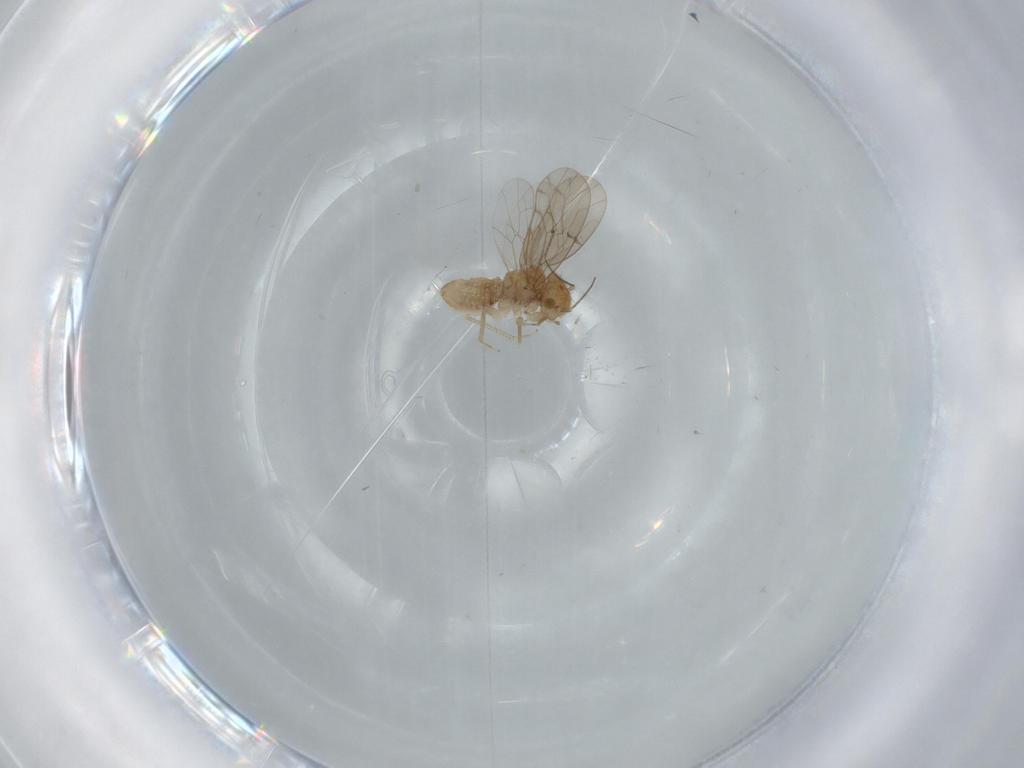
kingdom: Animalia
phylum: Arthropoda
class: Insecta
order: Psocodea
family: Ectopsocidae
